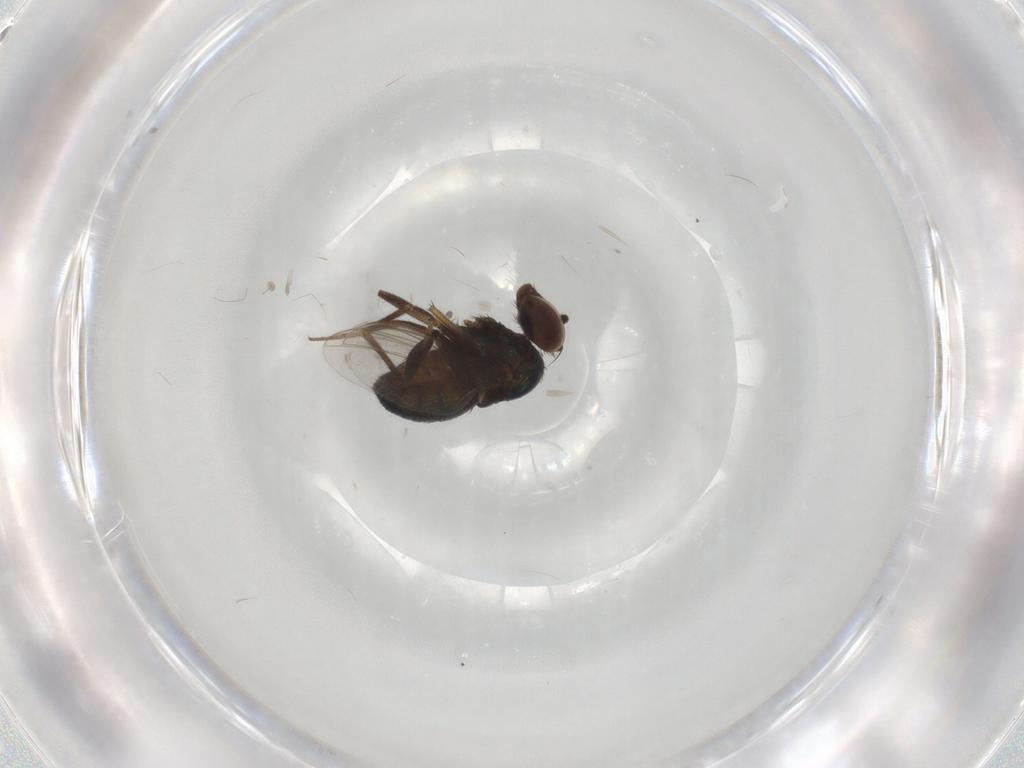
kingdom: Animalia
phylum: Arthropoda
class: Insecta
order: Diptera
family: Dolichopodidae
